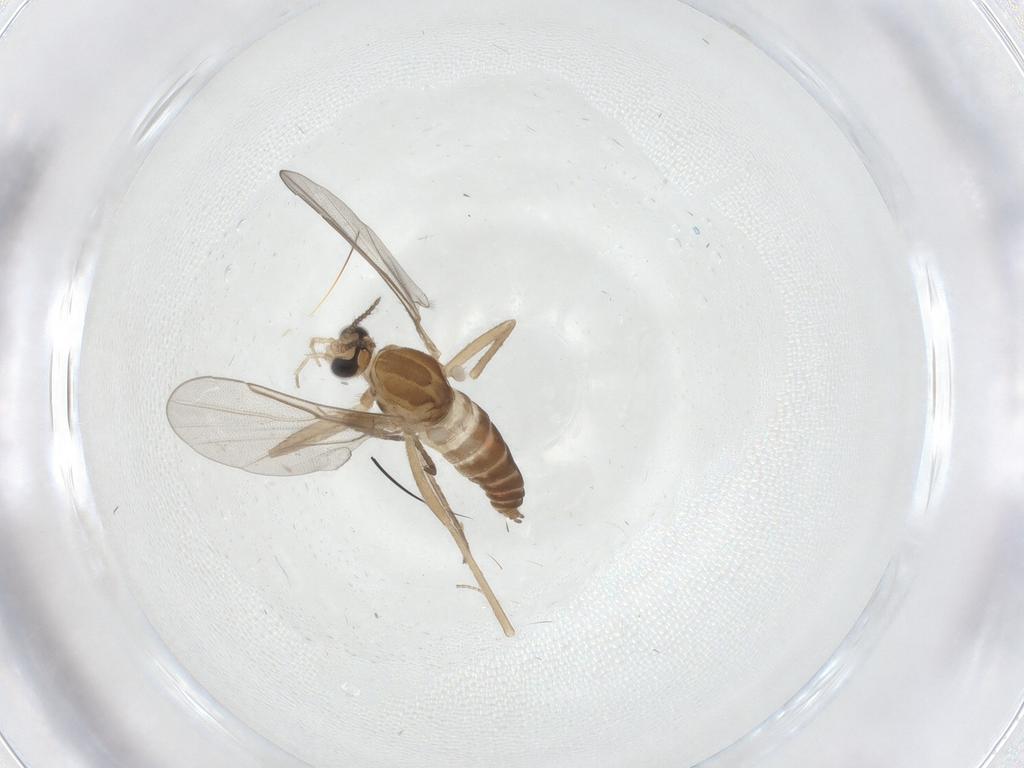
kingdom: Animalia
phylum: Arthropoda
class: Insecta
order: Diptera
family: Cecidomyiidae
